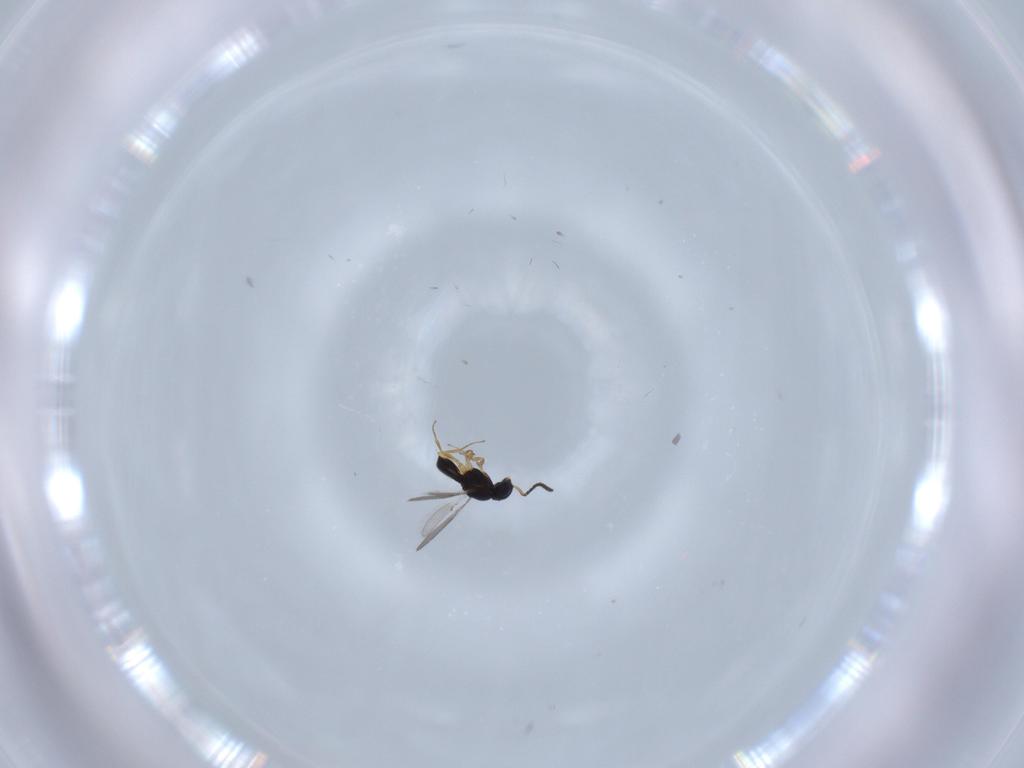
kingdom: Animalia
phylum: Arthropoda
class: Insecta
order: Hymenoptera
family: Scelionidae
